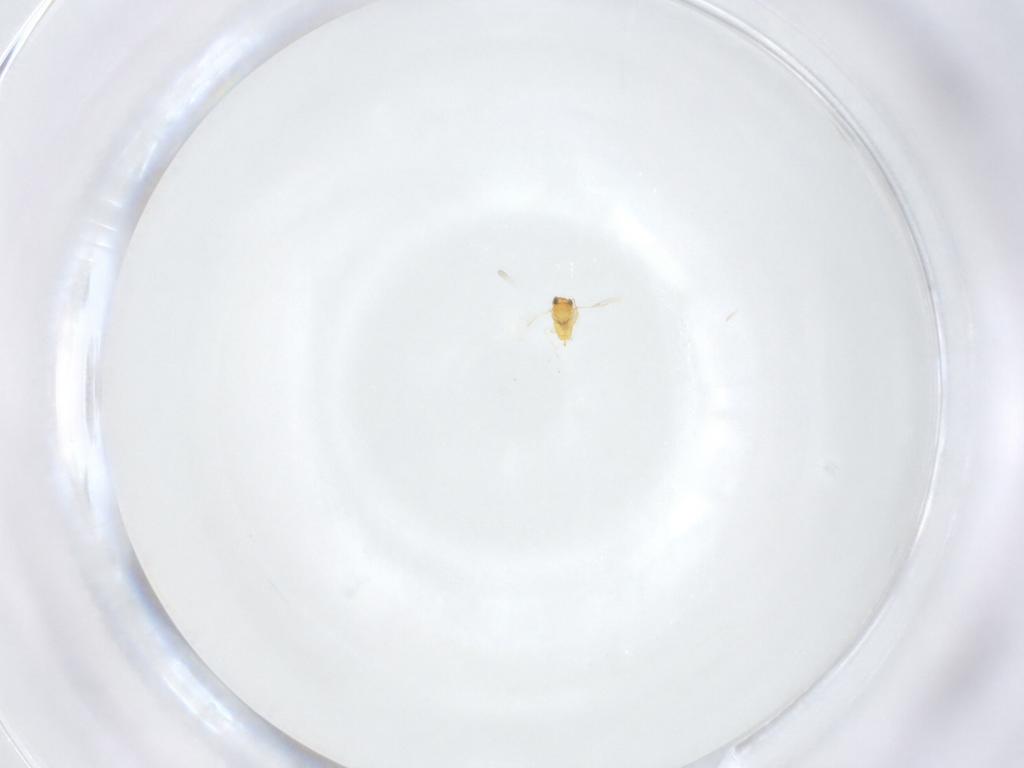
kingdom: Animalia
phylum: Arthropoda
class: Insecta
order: Hymenoptera
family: Aphelinidae
